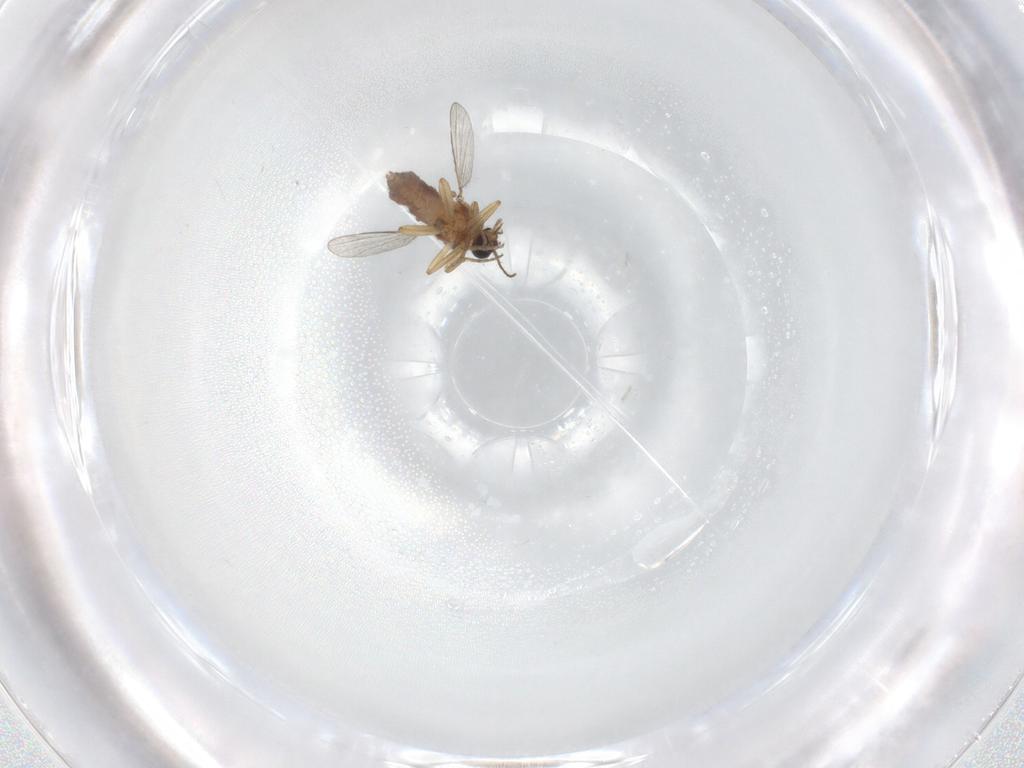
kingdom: Animalia
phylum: Arthropoda
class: Insecta
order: Diptera
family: Ceratopogonidae
